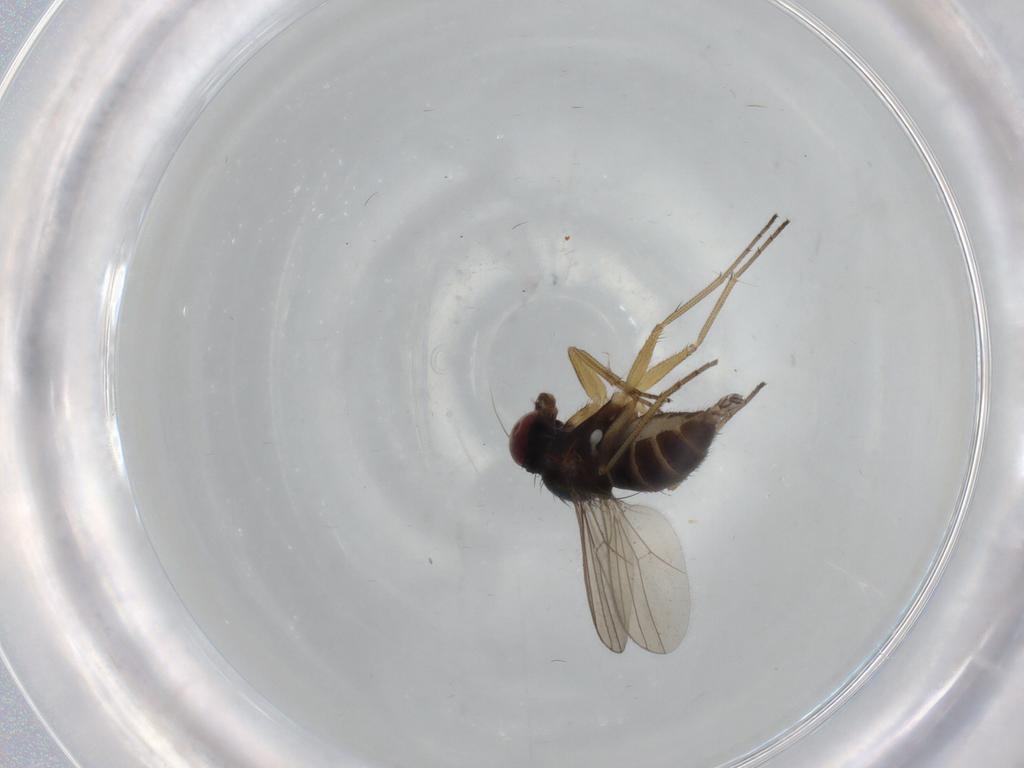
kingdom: Animalia
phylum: Arthropoda
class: Insecta
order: Diptera
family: Dolichopodidae
